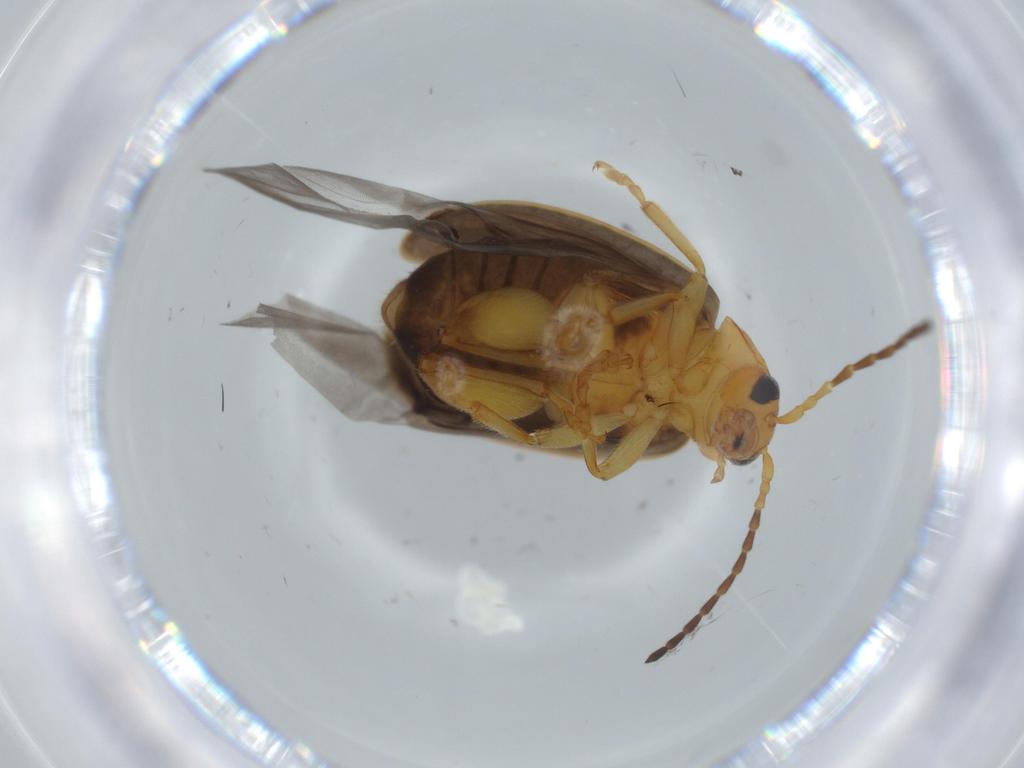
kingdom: Animalia
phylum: Arthropoda
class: Insecta
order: Coleoptera
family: Chrysomelidae
